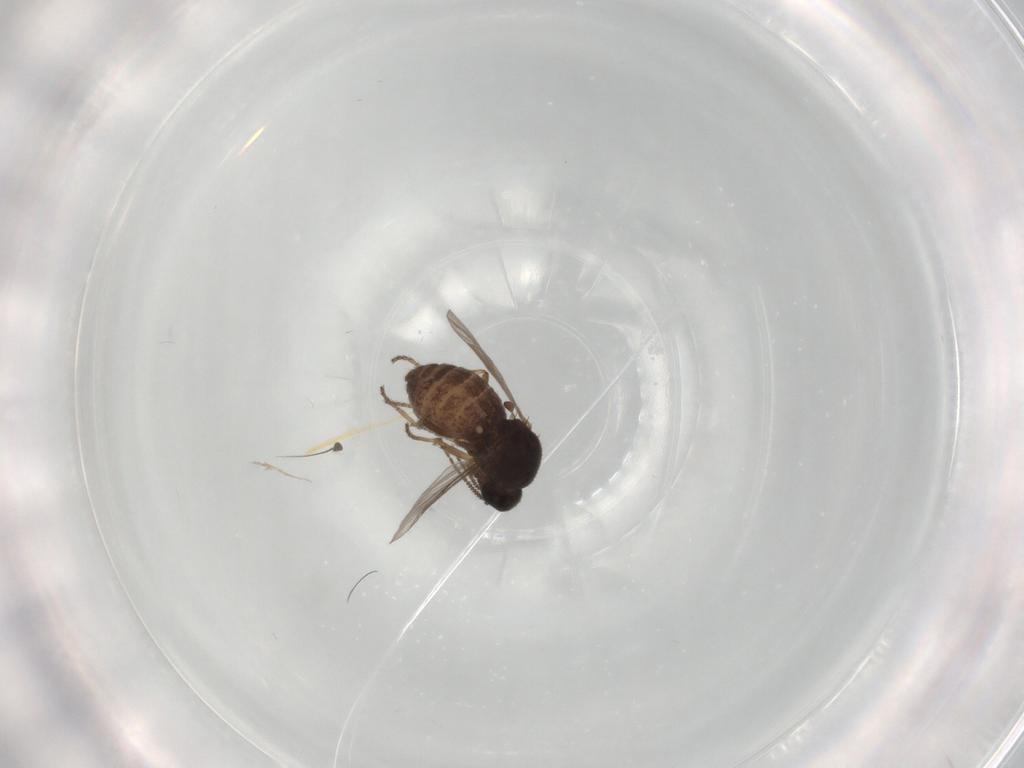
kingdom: Animalia
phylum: Arthropoda
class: Insecta
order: Diptera
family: Ceratopogonidae
